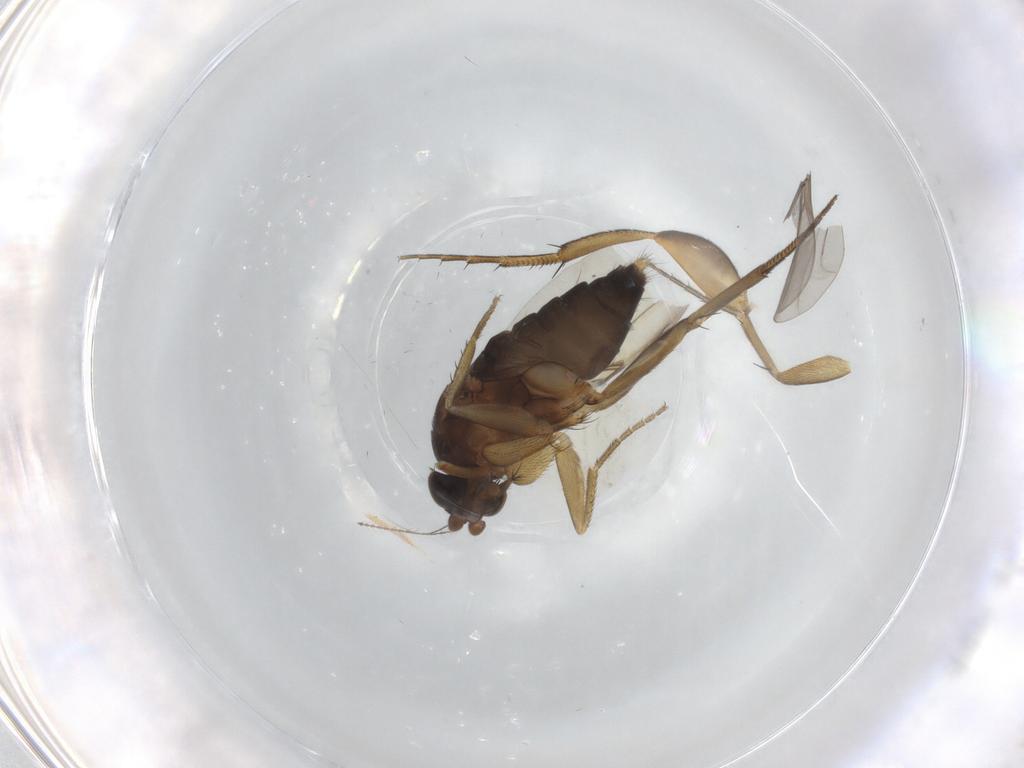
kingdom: Animalia
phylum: Arthropoda
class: Insecta
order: Diptera
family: Phoridae
